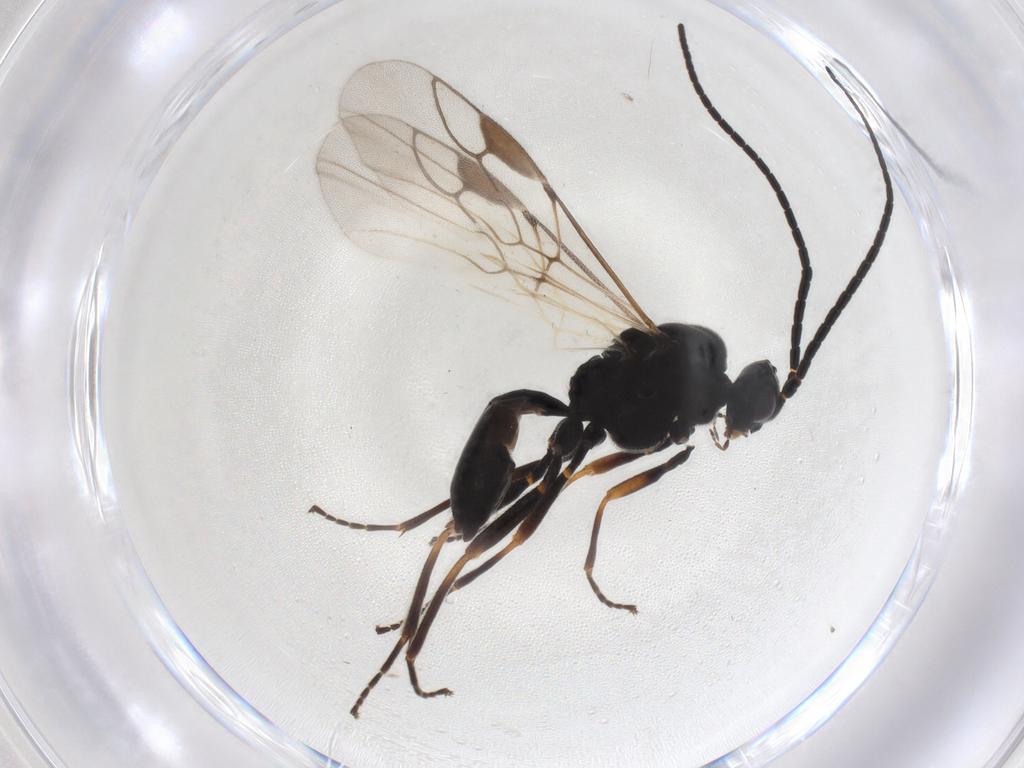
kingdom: Animalia
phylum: Arthropoda
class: Insecta
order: Hymenoptera
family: Braconidae
